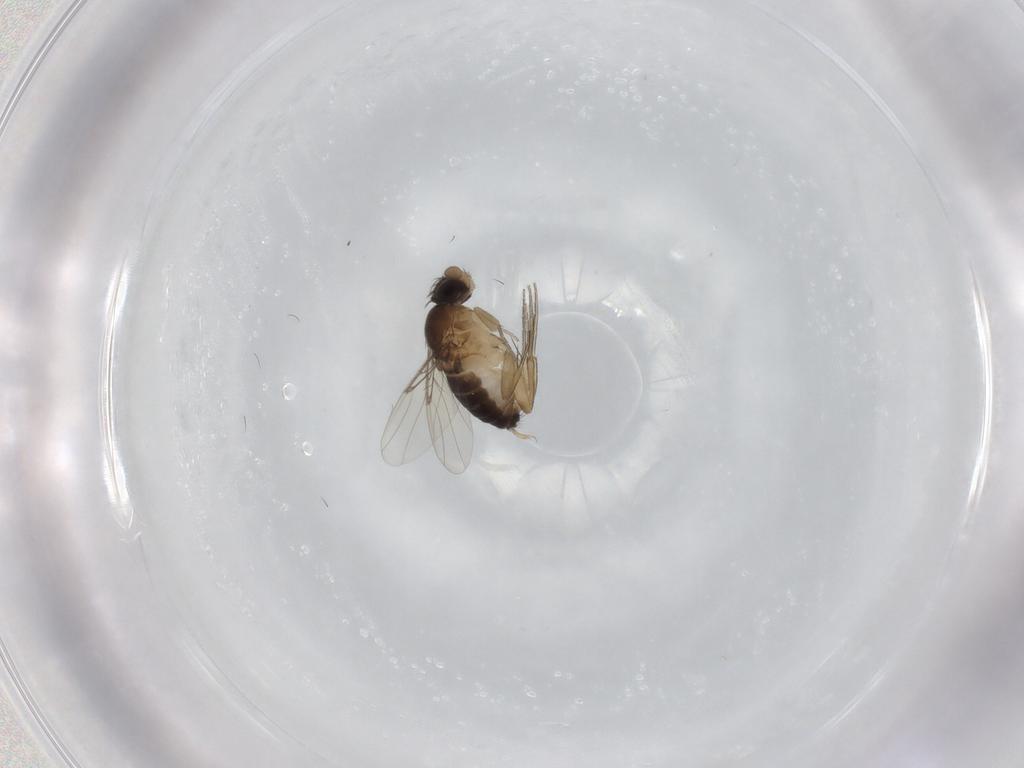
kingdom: Animalia
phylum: Arthropoda
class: Insecta
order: Diptera
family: Phoridae
